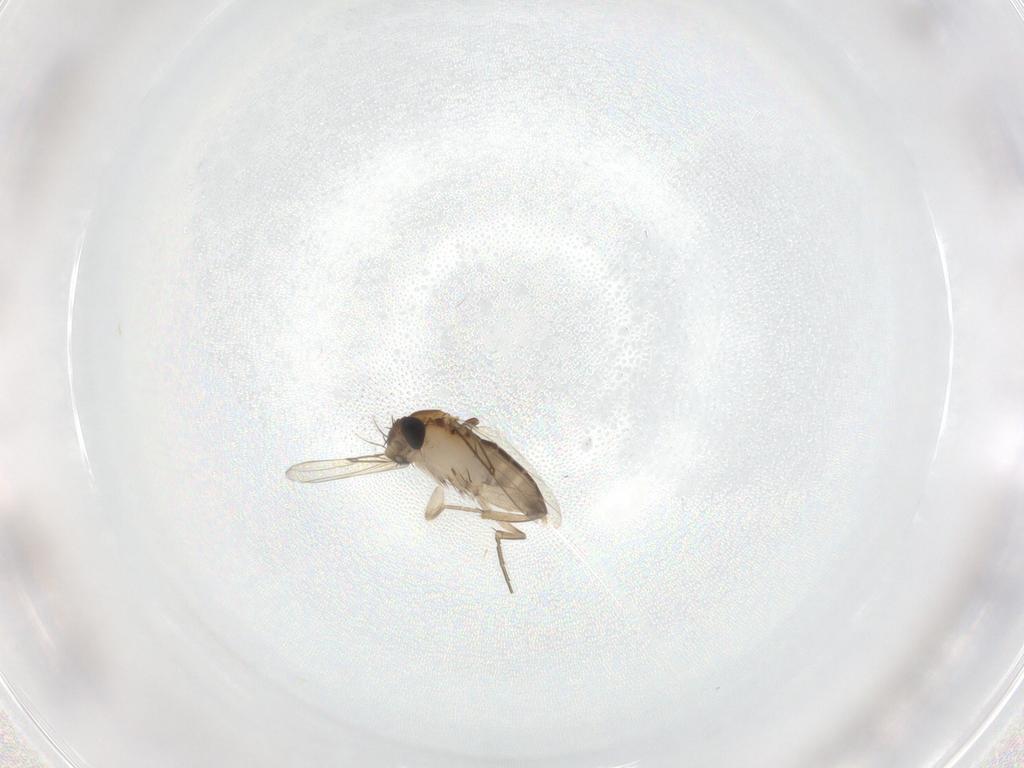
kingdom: Animalia
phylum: Arthropoda
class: Insecta
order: Diptera
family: Phoridae
